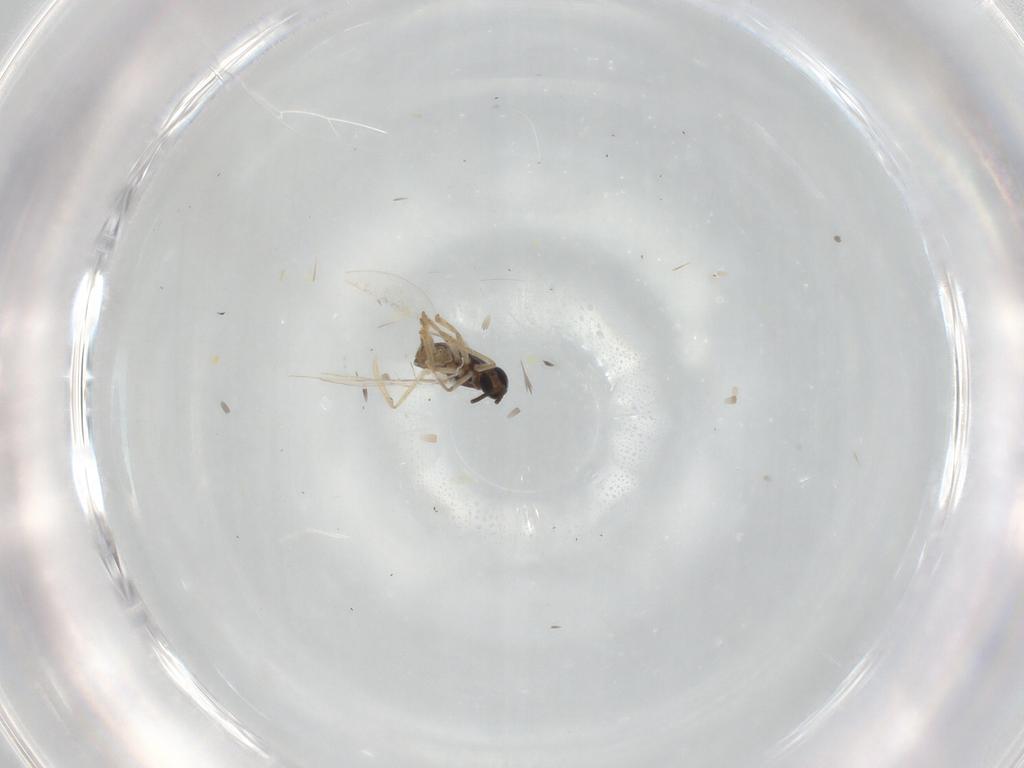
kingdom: Animalia
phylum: Arthropoda
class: Insecta
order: Diptera
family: Cecidomyiidae
